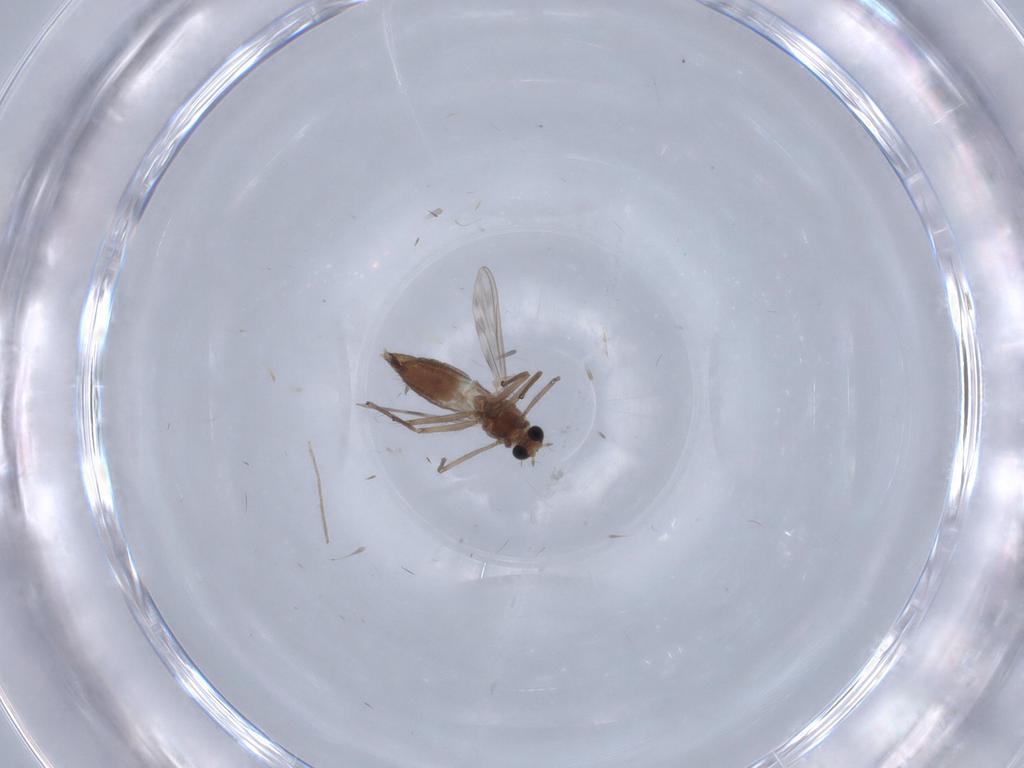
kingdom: Animalia
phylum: Arthropoda
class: Insecta
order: Diptera
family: Chironomidae
